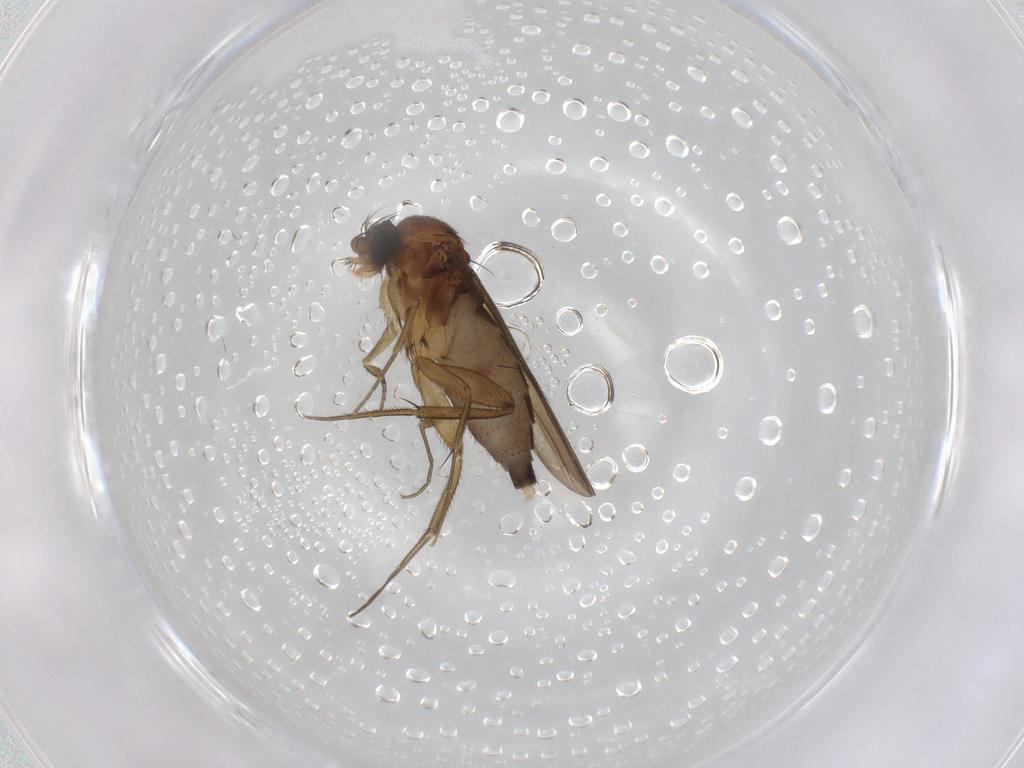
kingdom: Animalia
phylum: Arthropoda
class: Insecta
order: Diptera
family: Phoridae
